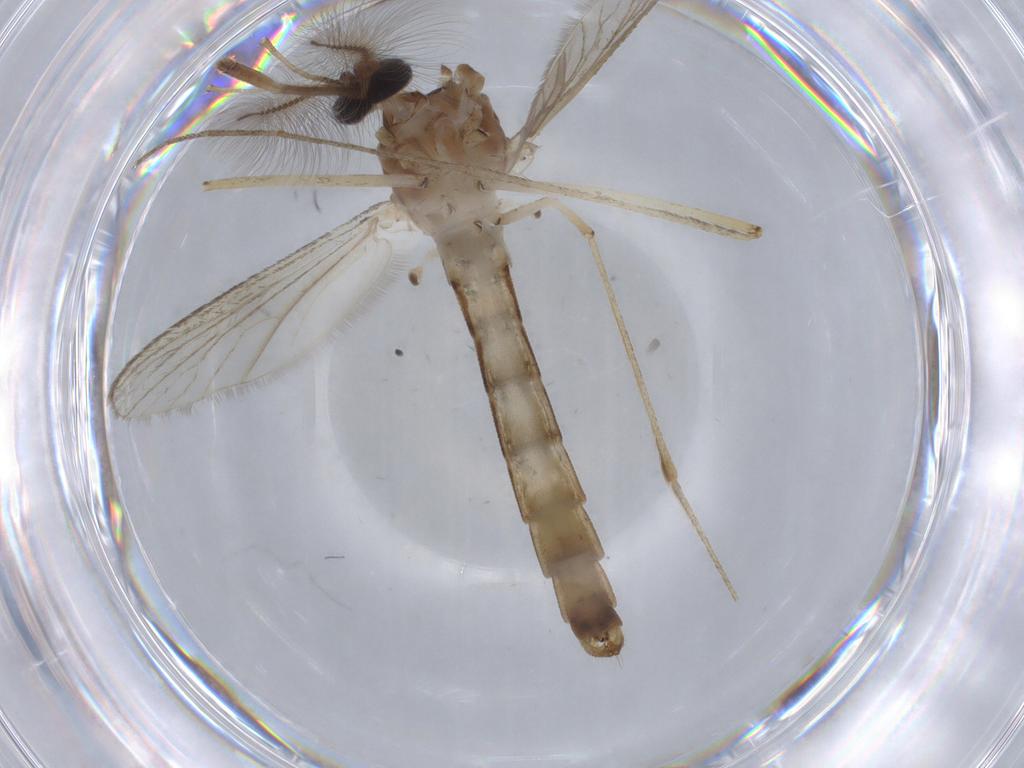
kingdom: Animalia
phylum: Arthropoda
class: Insecta
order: Diptera
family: Culicidae
